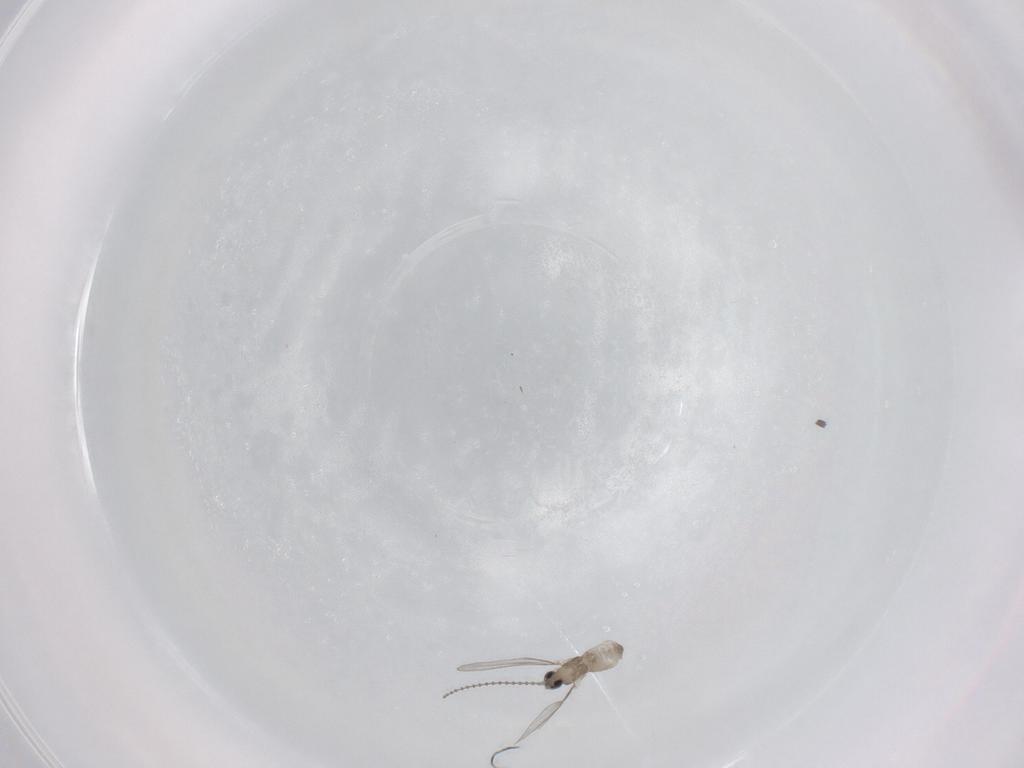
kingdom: Animalia
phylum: Arthropoda
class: Insecta
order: Diptera
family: Cecidomyiidae
